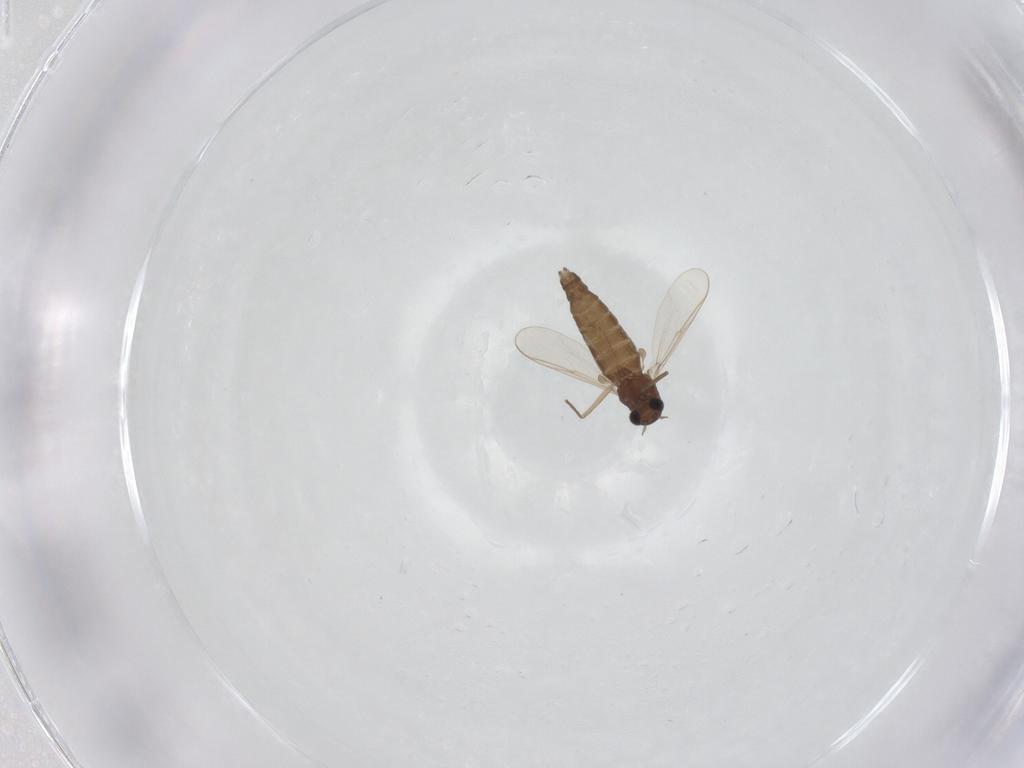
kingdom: Animalia
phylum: Arthropoda
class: Insecta
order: Diptera
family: Chironomidae
